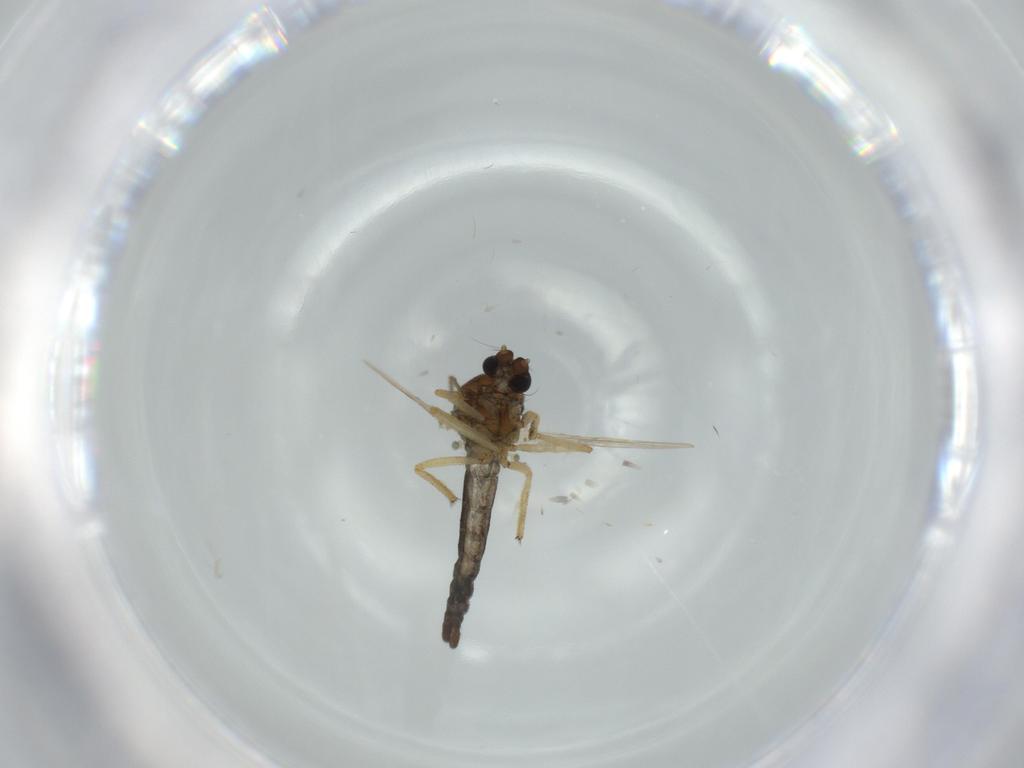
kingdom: Animalia
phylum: Arthropoda
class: Insecta
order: Diptera
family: Ceratopogonidae
